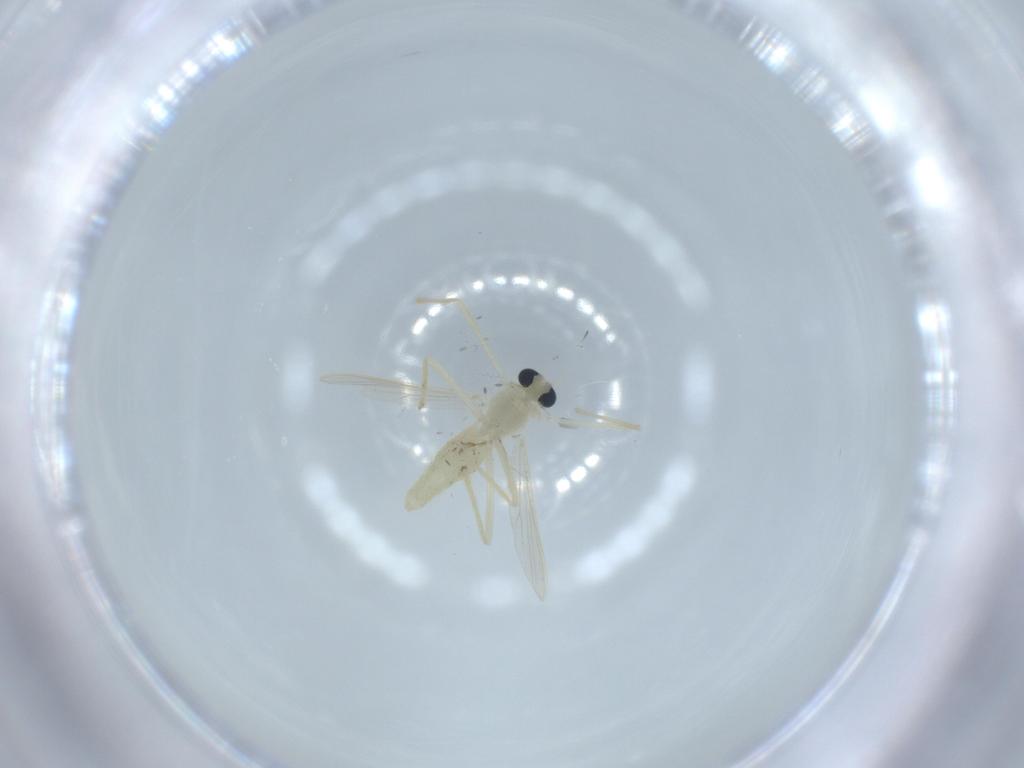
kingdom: Animalia
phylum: Arthropoda
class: Insecta
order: Diptera
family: Chironomidae
